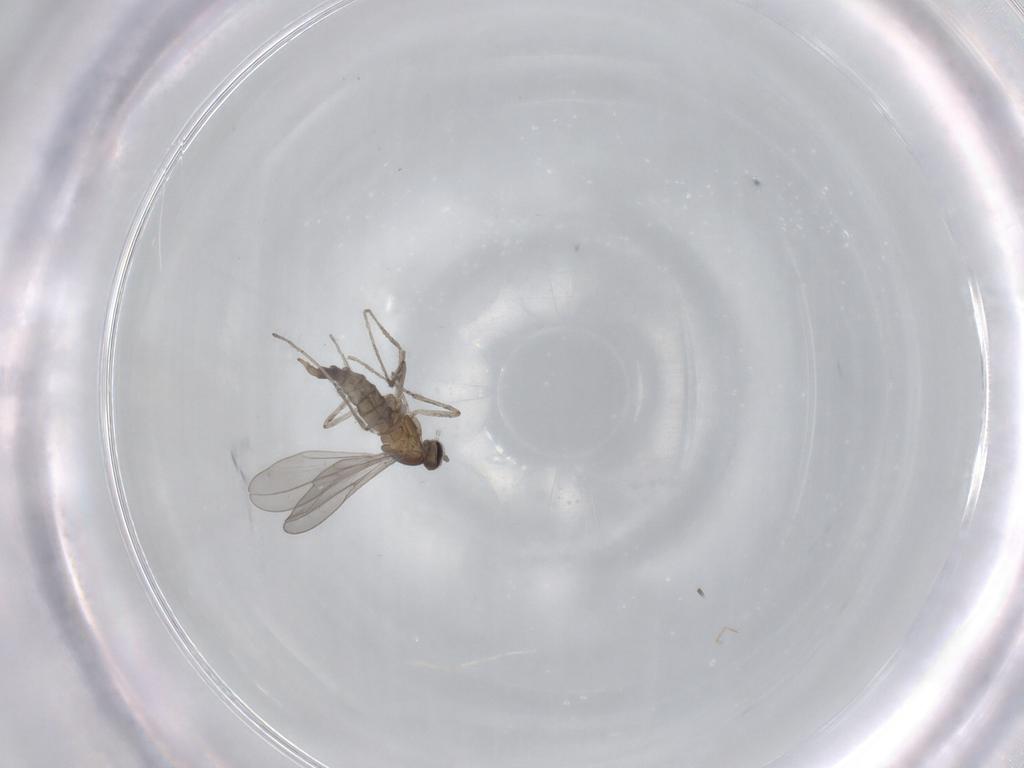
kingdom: Animalia
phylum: Arthropoda
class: Insecta
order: Diptera
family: Cecidomyiidae
